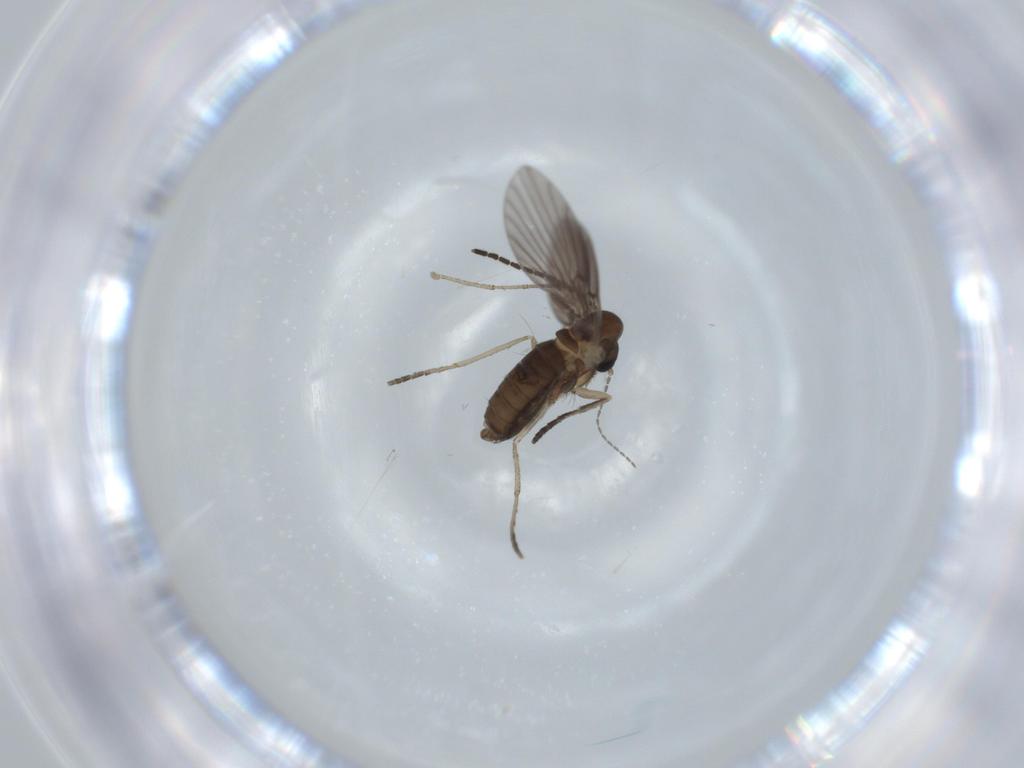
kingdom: Animalia
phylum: Arthropoda
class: Insecta
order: Diptera
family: Psychodidae
